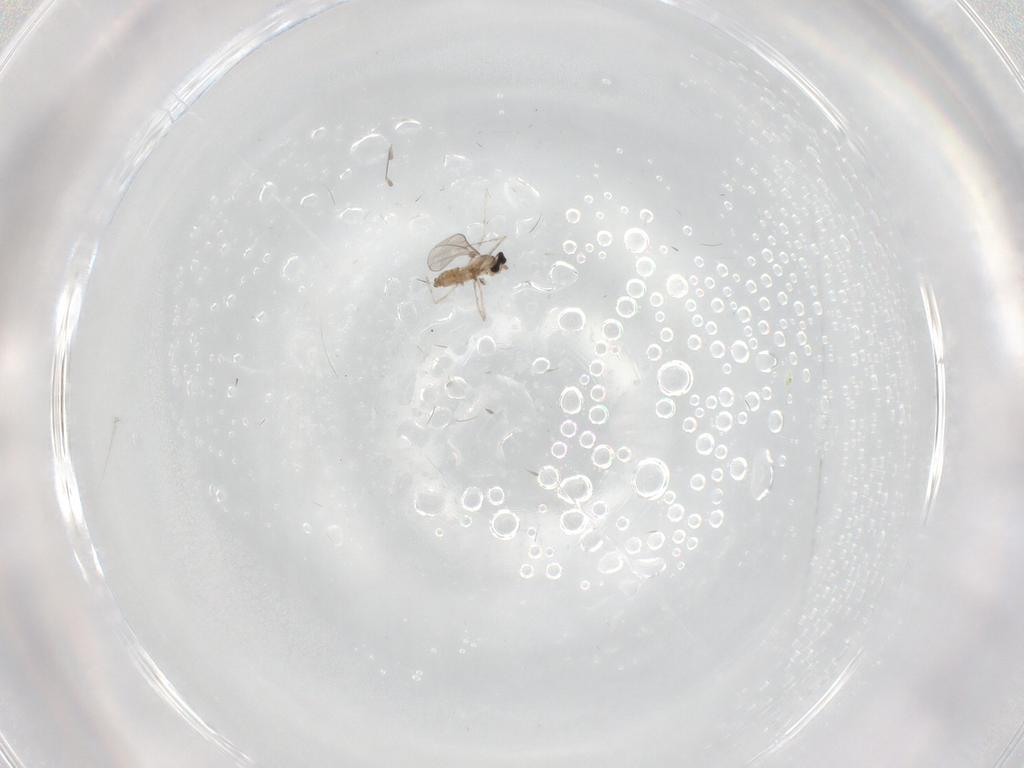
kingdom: Animalia
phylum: Arthropoda
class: Insecta
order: Diptera
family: Cecidomyiidae
